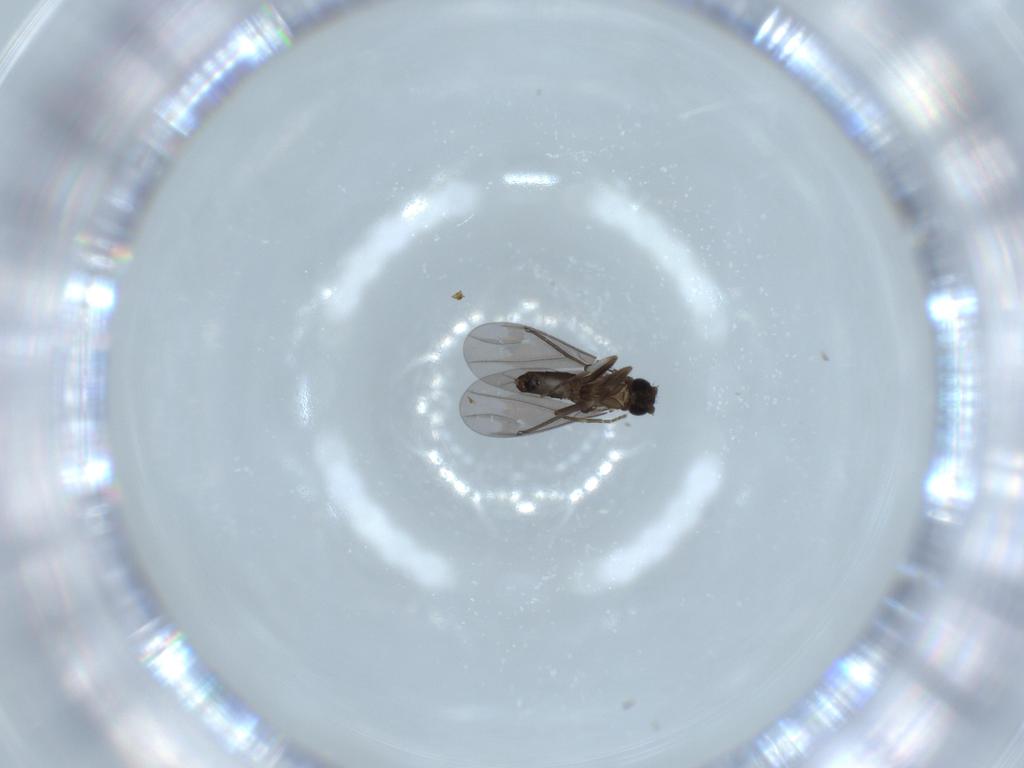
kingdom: Animalia
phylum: Arthropoda
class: Insecta
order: Diptera
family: Phoridae
